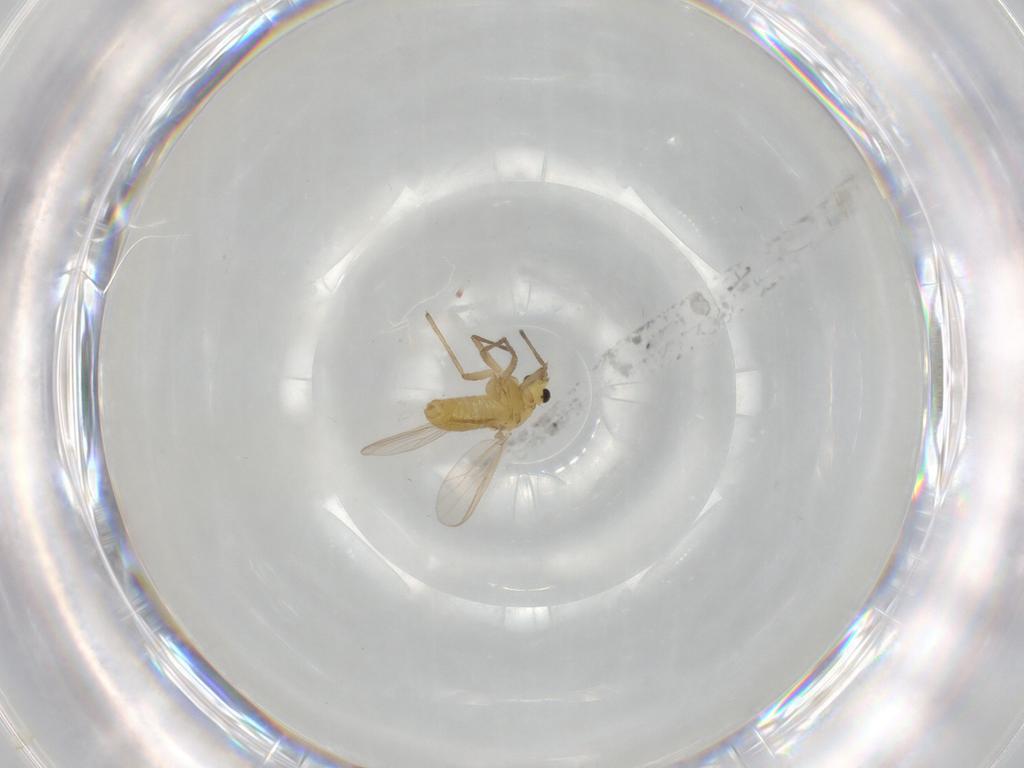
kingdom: Animalia
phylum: Arthropoda
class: Insecta
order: Diptera
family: Chironomidae
